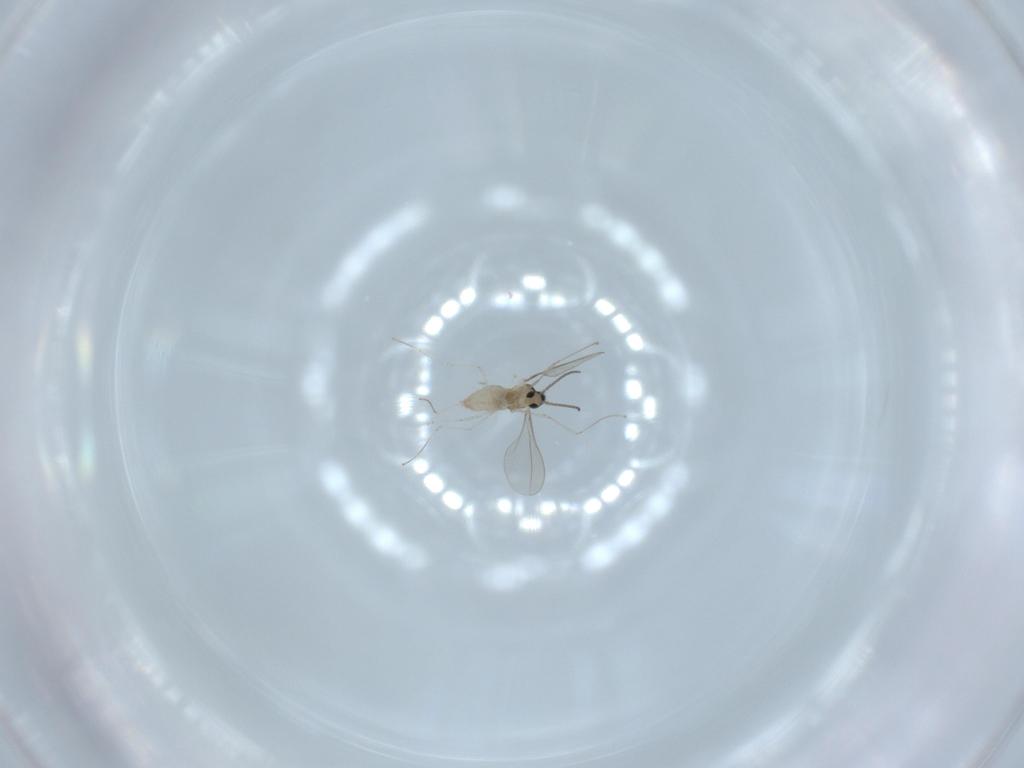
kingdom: Animalia
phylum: Arthropoda
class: Insecta
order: Diptera
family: Cecidomyiidae
